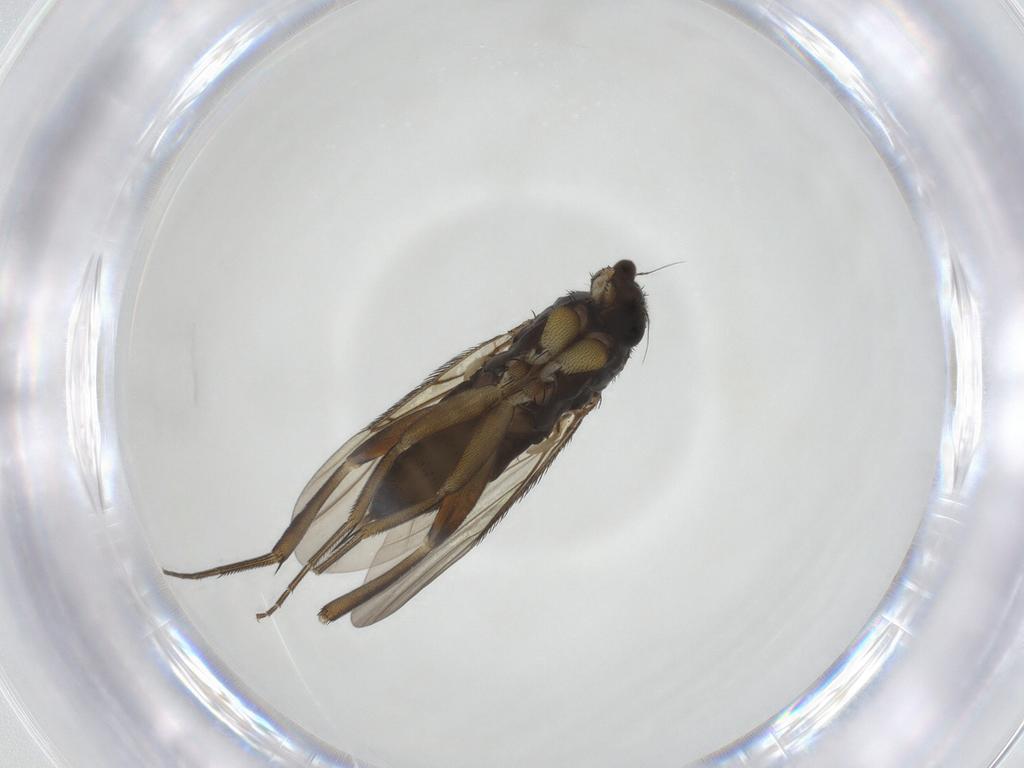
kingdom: Animalia
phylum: Arthropoda
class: Insecta
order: Diptera
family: Phoridae
